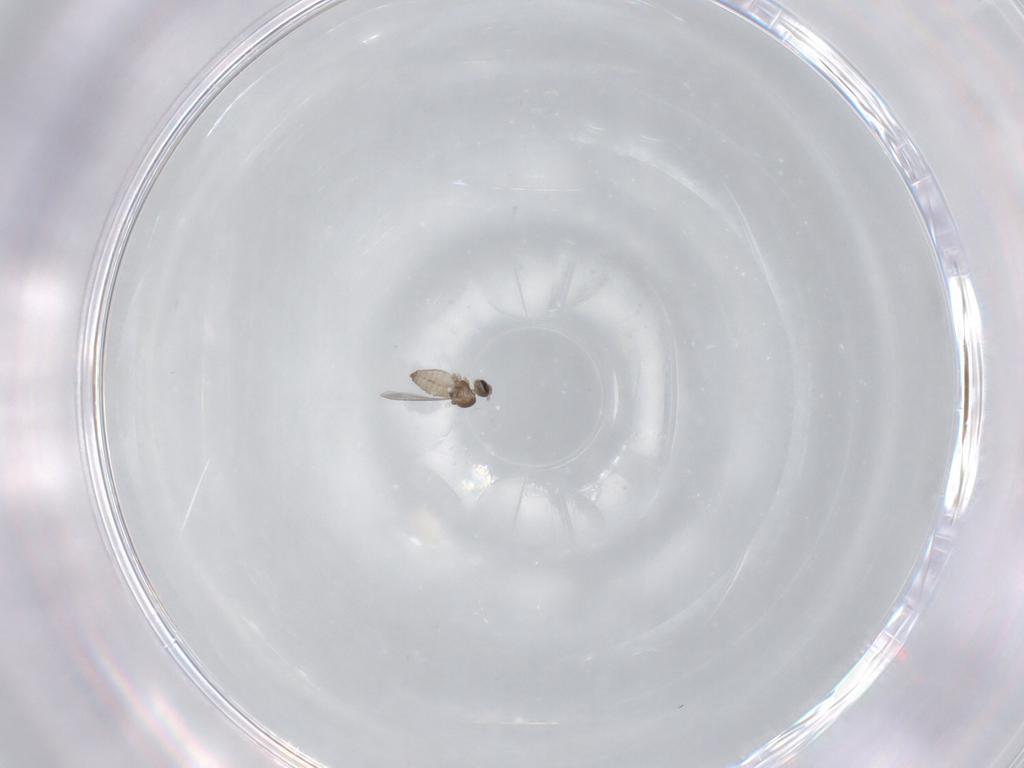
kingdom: Animalia
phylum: Arthropoda
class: Insecta
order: Diptera
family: Cecidomyiidae
